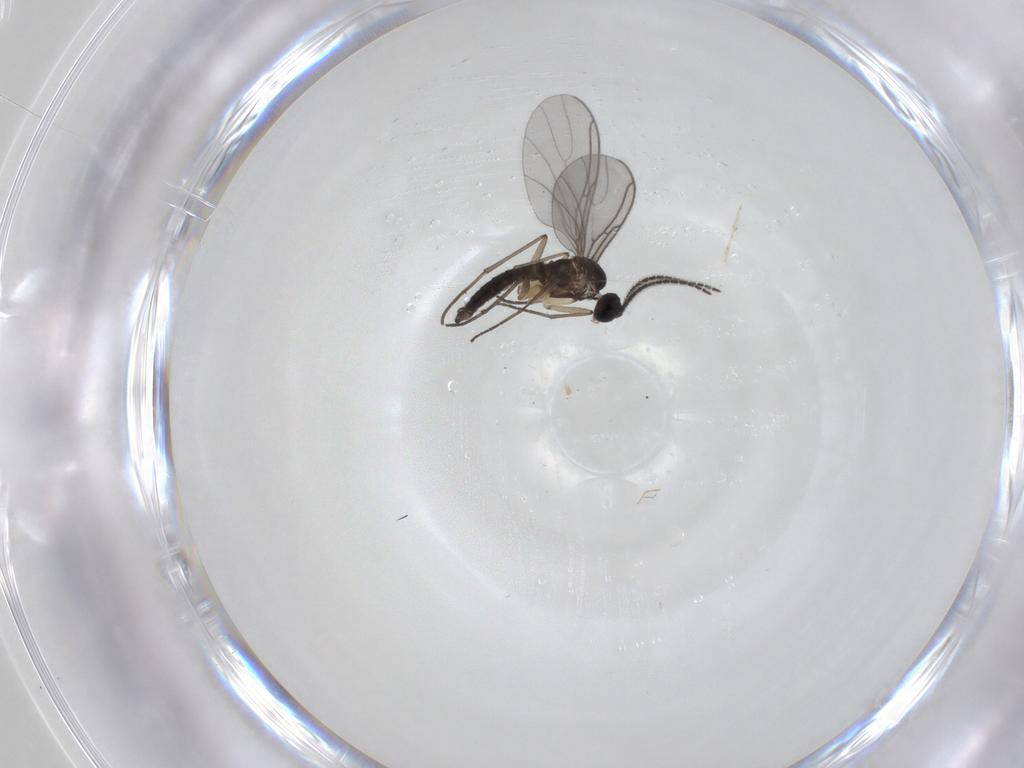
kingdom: Animalia
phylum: Arthropoda
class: Insecta
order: Diptera
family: Sciaridae
